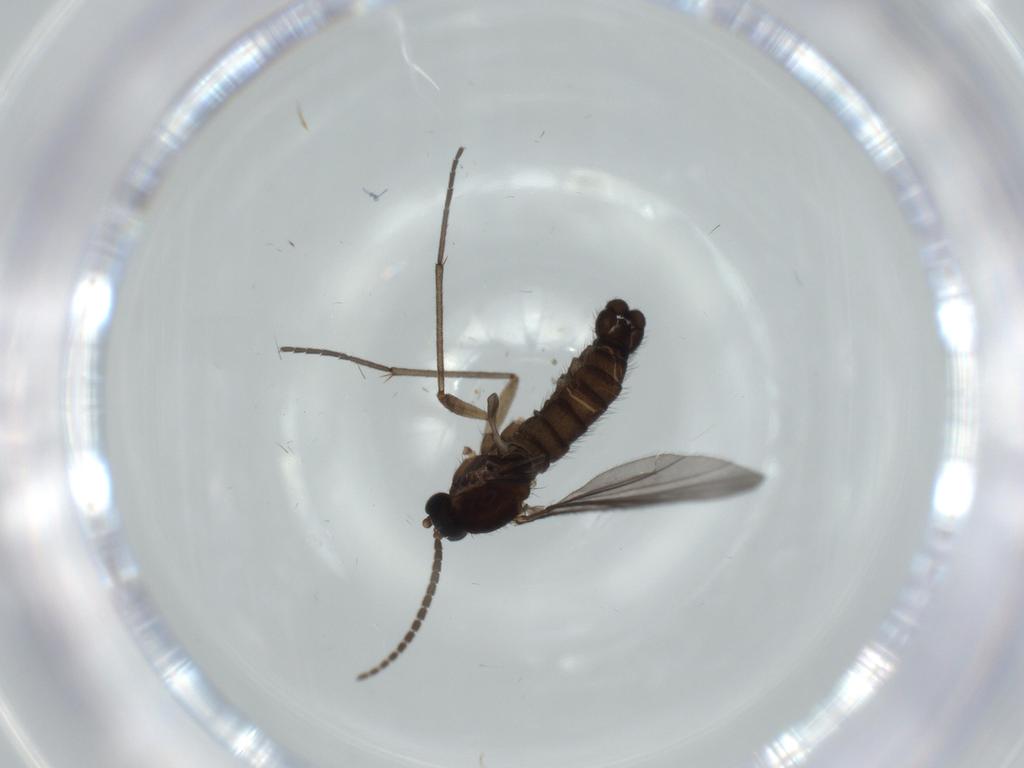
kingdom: Animalia
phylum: Arthropoda
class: Insecta
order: Diptera
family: Sciaridae
